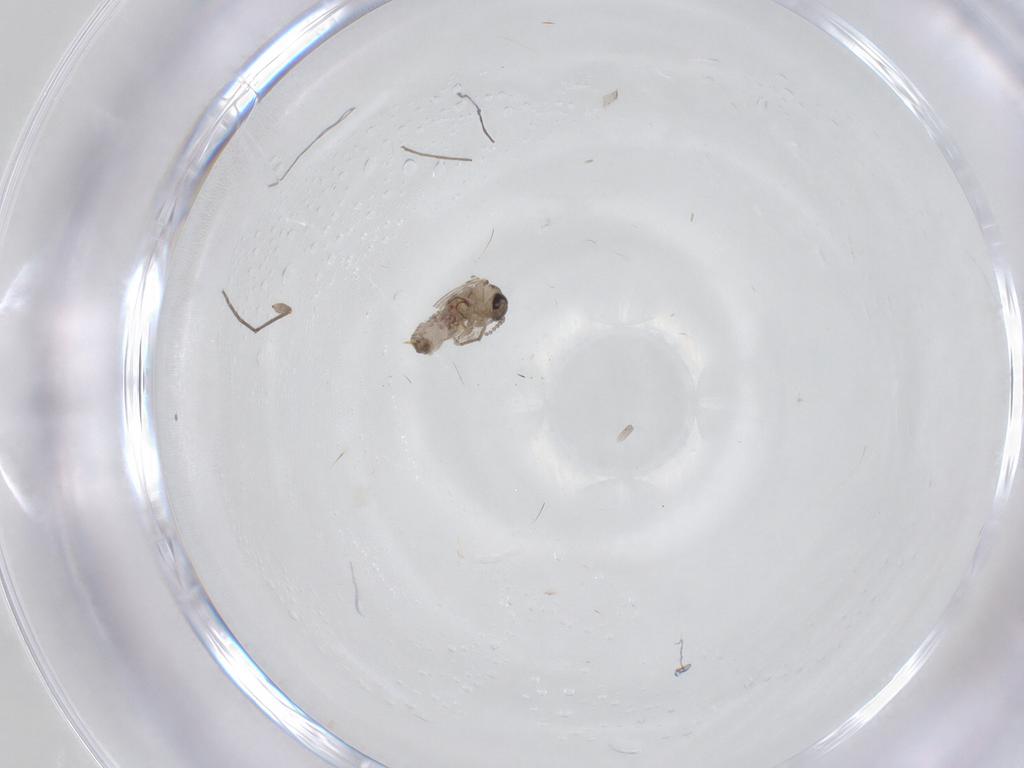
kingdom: Animalia
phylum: Arthropoda
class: Insecta
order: Diptera
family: Psychodidae
